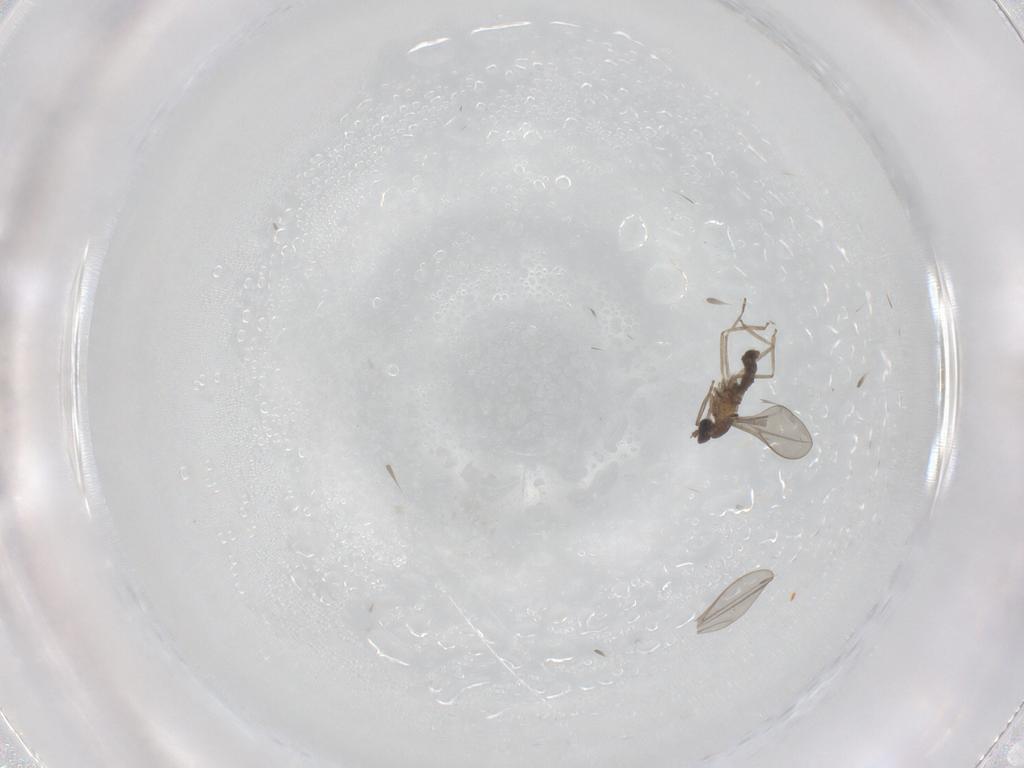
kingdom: Animalia
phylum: Arthropoda
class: Insecta
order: Diptera
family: Cecidomyiidae
